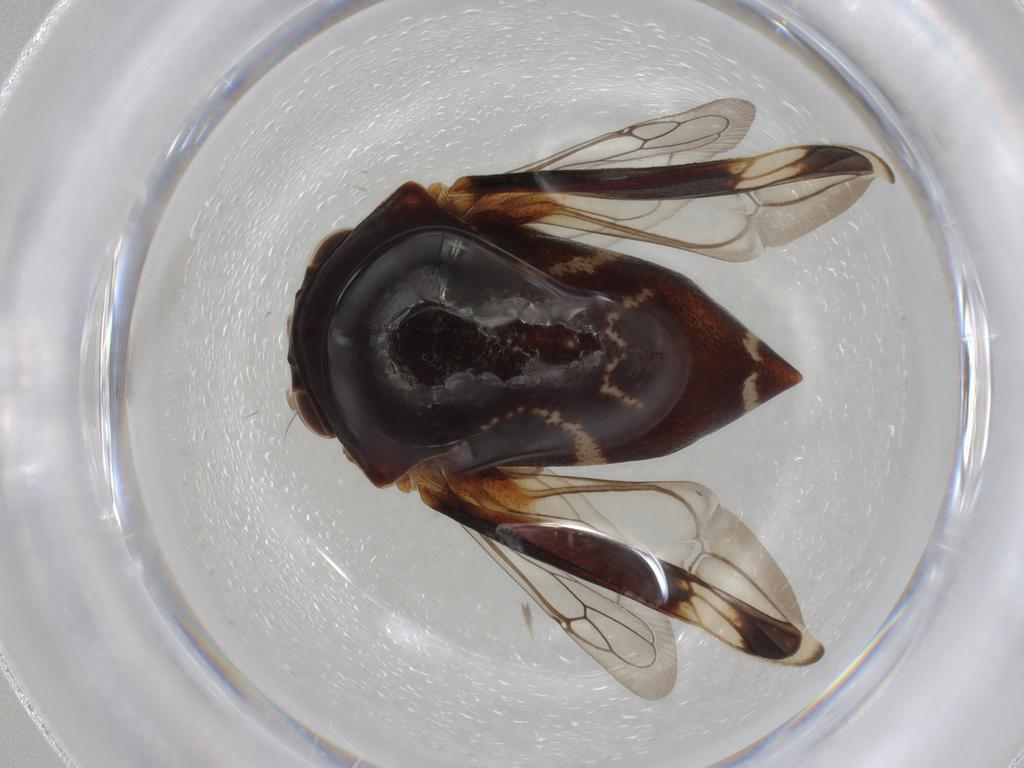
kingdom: Animalia
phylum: Arthropoda
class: Insecta
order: Hemiptera
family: Membracidae
